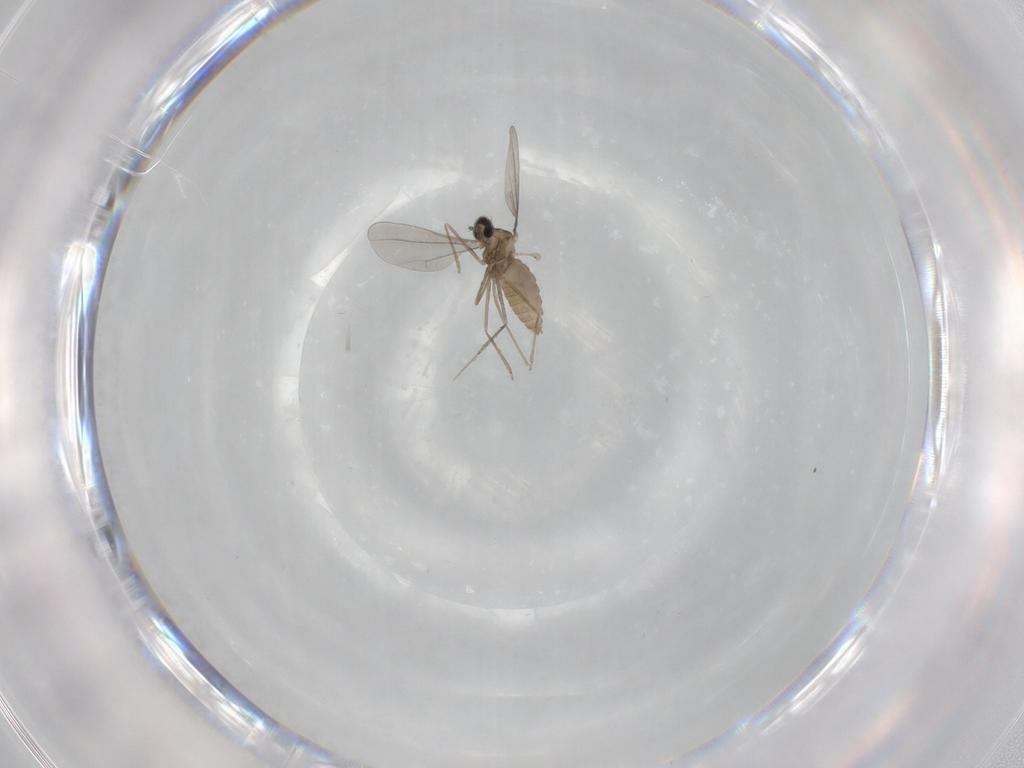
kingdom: Animalia
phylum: Arthropoda
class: Insecta
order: Diptera
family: Cecidomyiidae
